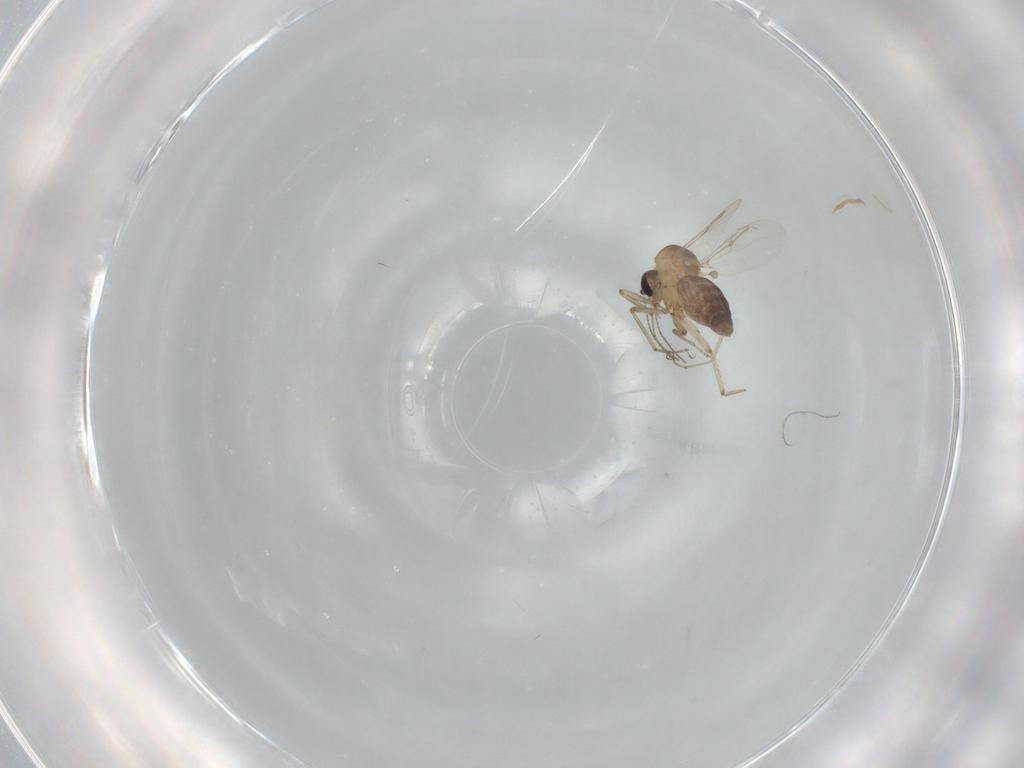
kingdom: Animalia
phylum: Arthropoda
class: Insecta
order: Diptera
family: Ceratopogonidae
